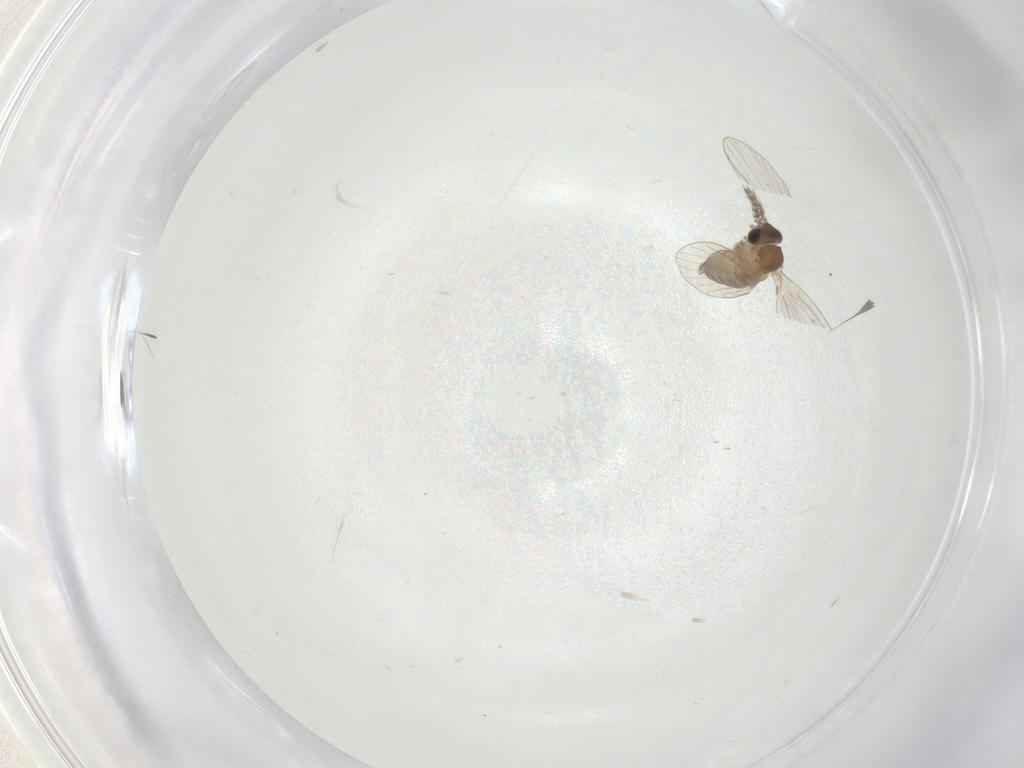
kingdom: Animalia
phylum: Arthropoda
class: Insecta
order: Diptera
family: Psychodidae
